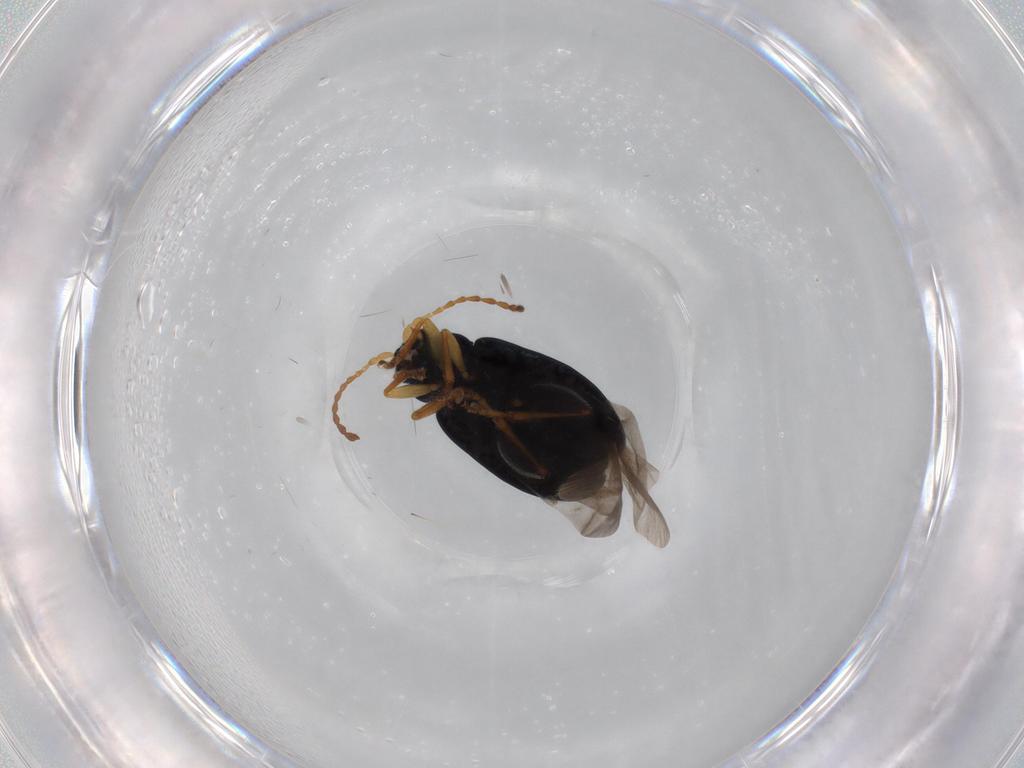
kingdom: Animalia
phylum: Arthropoda
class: Insecta
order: Coleoptera
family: Chrysomelidae
